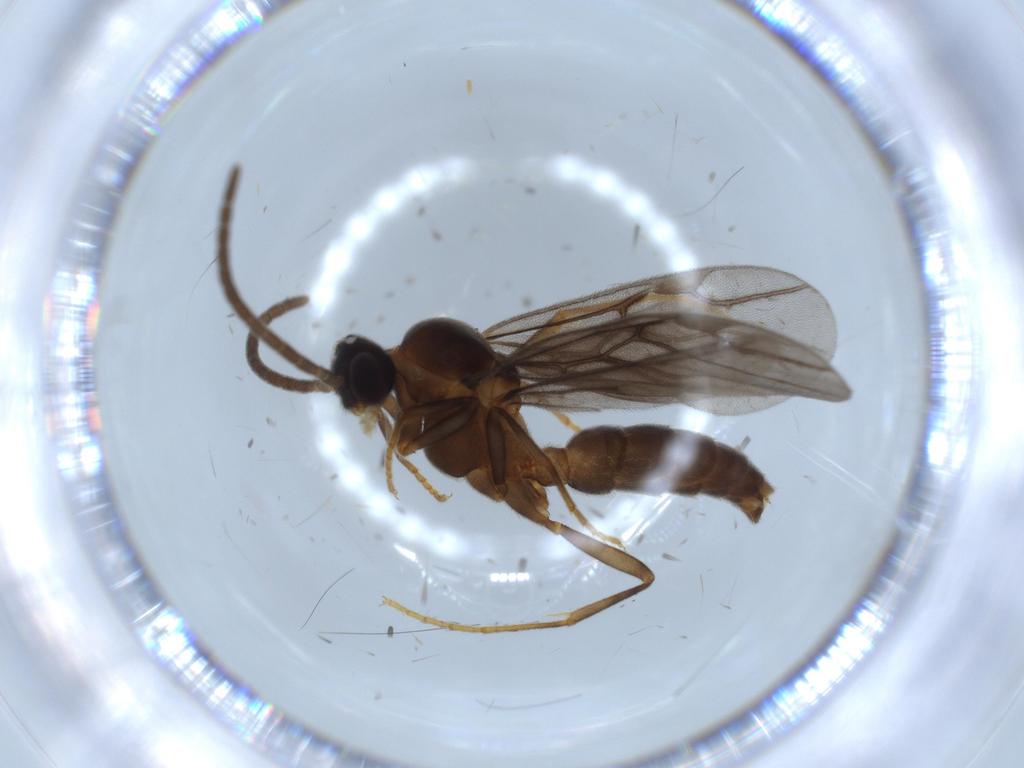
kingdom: Animalia
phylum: Arthropoda
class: Insecta
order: Hymenoptera
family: Formicidae
